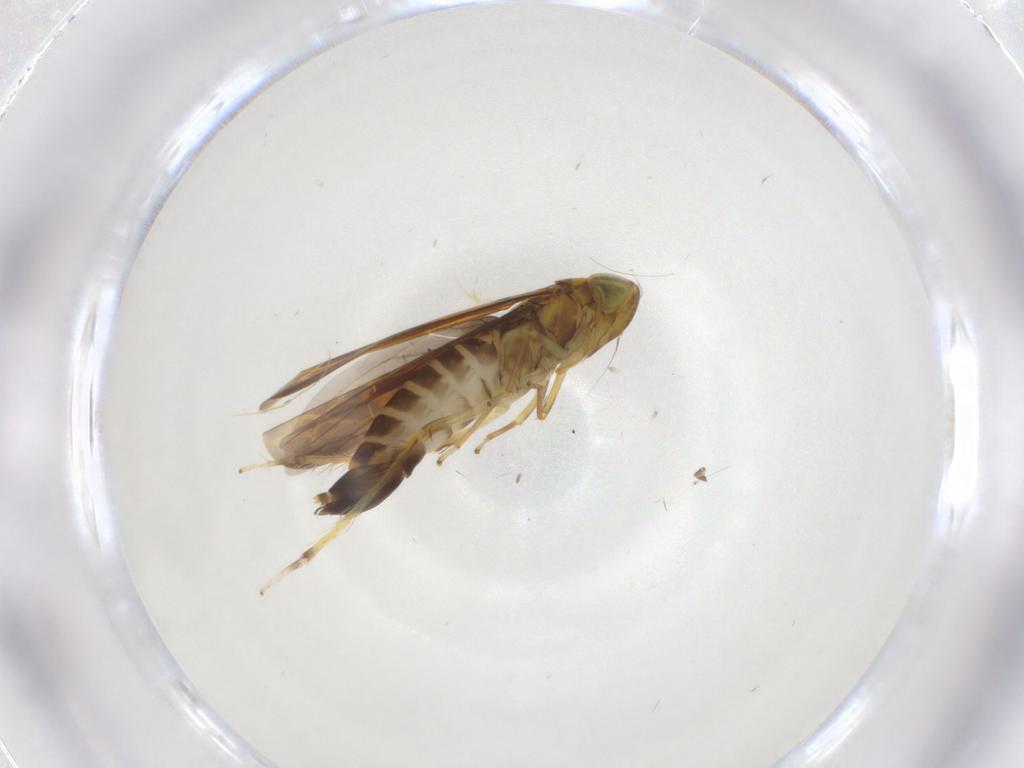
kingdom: Animalia
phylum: Arthropoda
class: Insecta
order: Hemiptera
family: Cicadellidae
